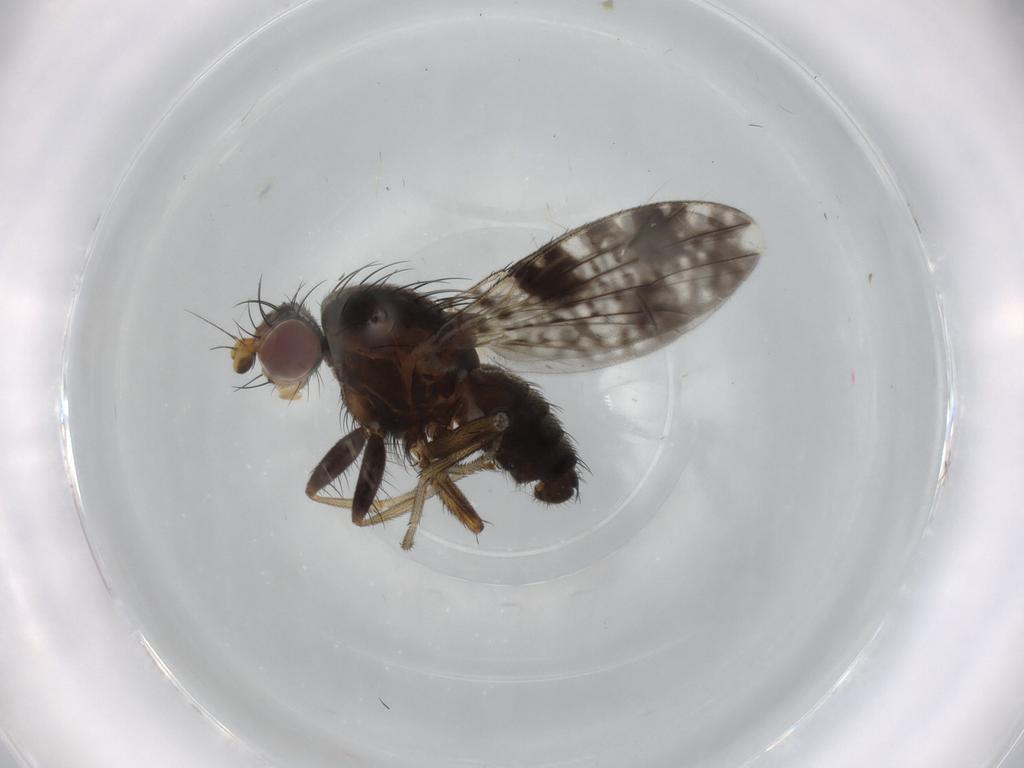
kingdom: Animalia
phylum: Arthropoda
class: Insecta
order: Diptera
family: Tephritidae
